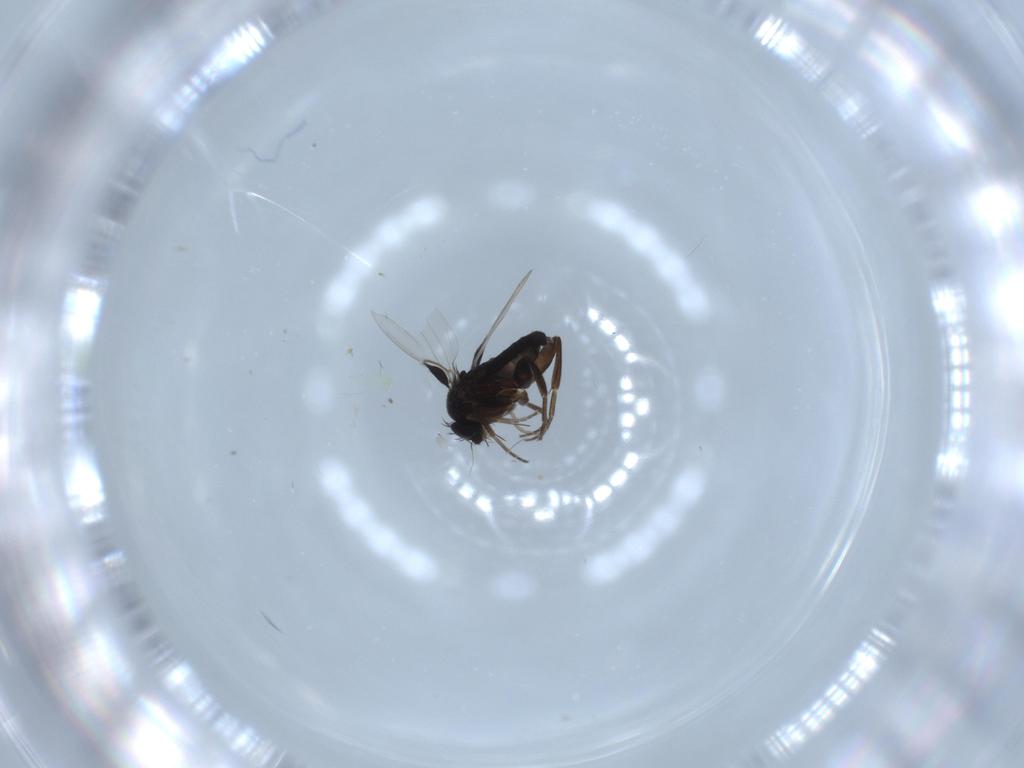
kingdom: Animalia
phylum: Arthropoda
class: Insecta
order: Diptera
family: Phoridae
